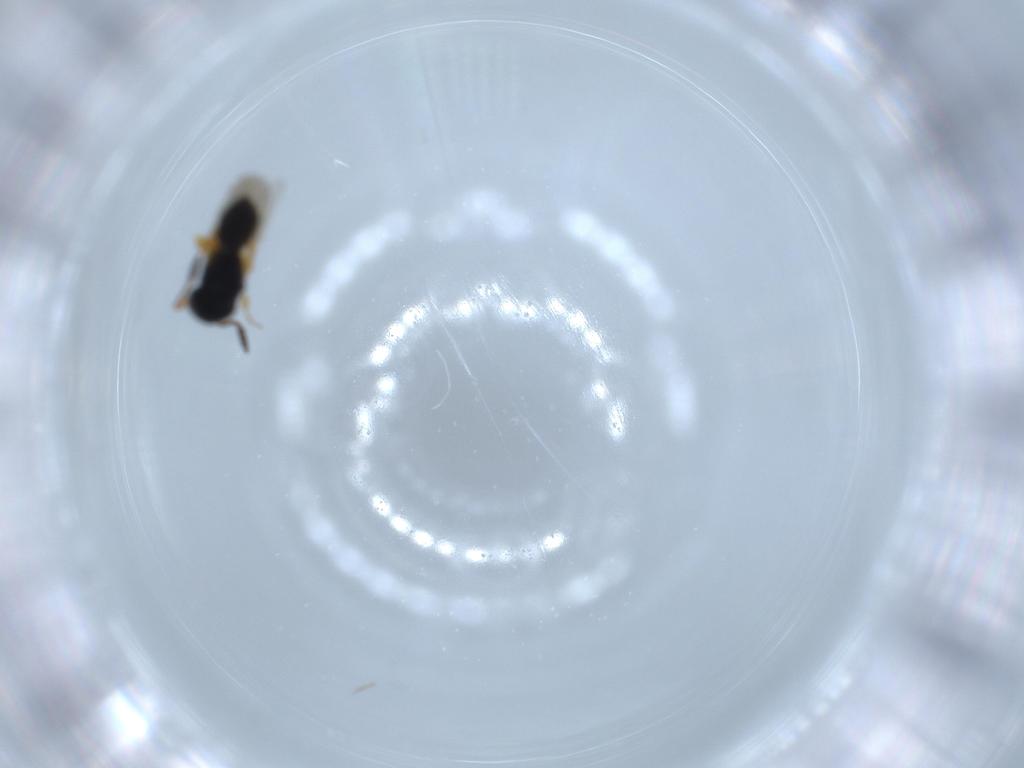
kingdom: Animalia
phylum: Arthropoda
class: Insecta
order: Hymenoptera
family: Scelionidae
